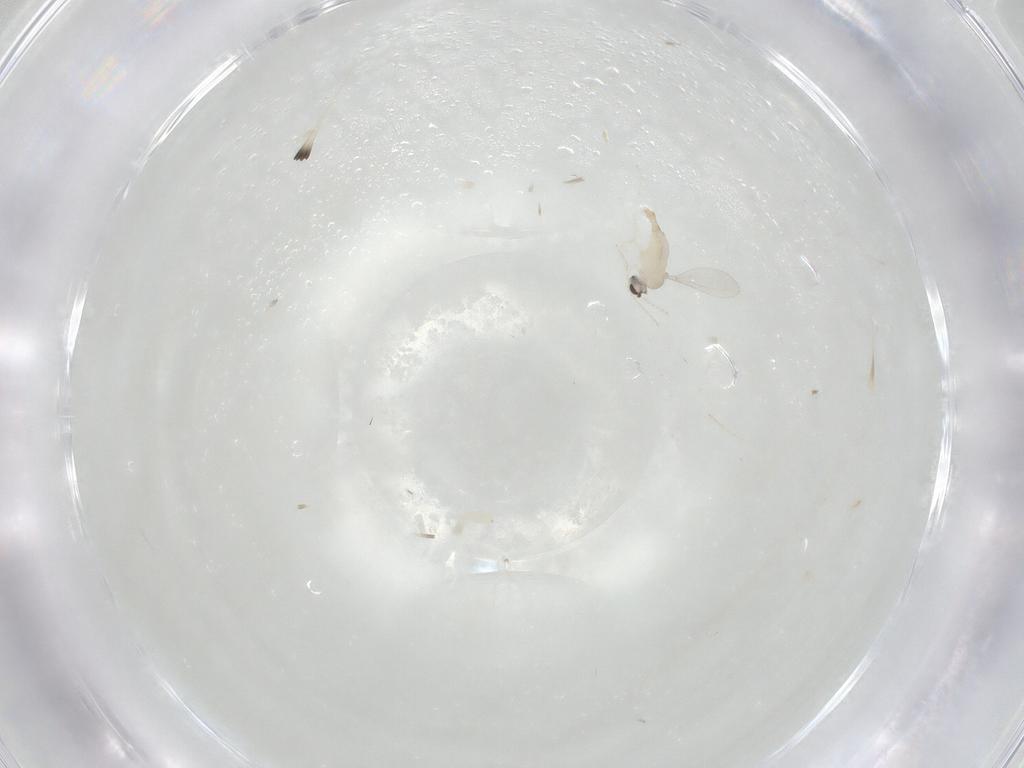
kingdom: Animalia
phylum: Arthropoda
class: Insecta
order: Diptera
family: Cecidomyiidae
